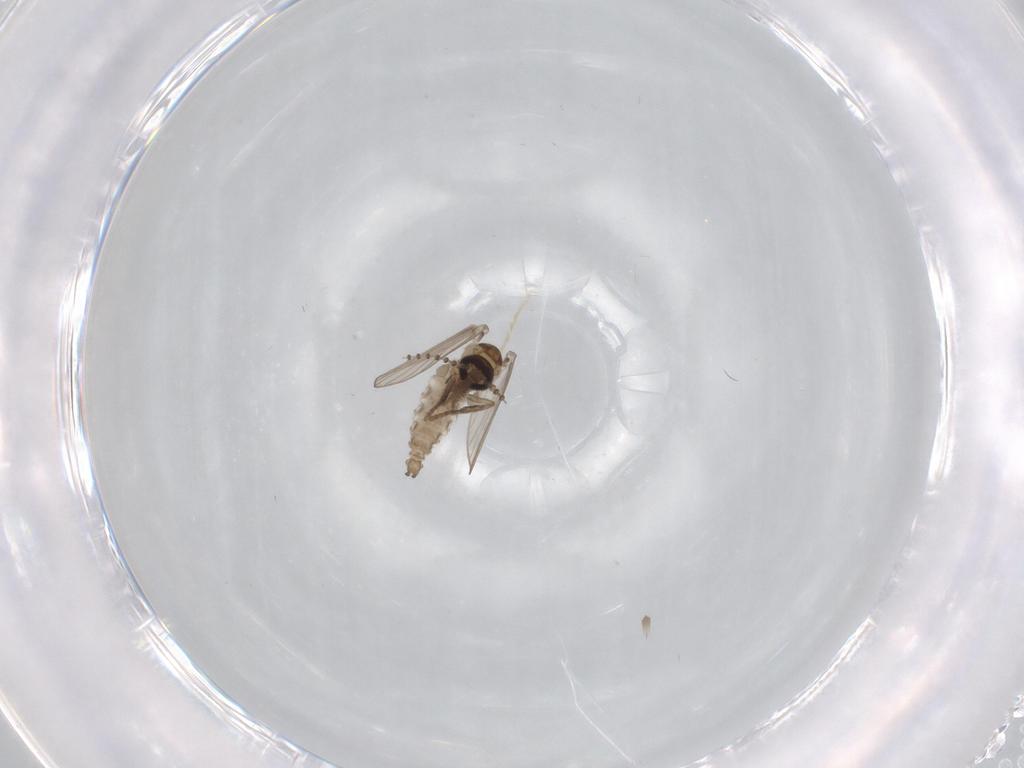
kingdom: Animalia
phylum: Arthropoda
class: Insecta
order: Diptera
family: Psychodidae
